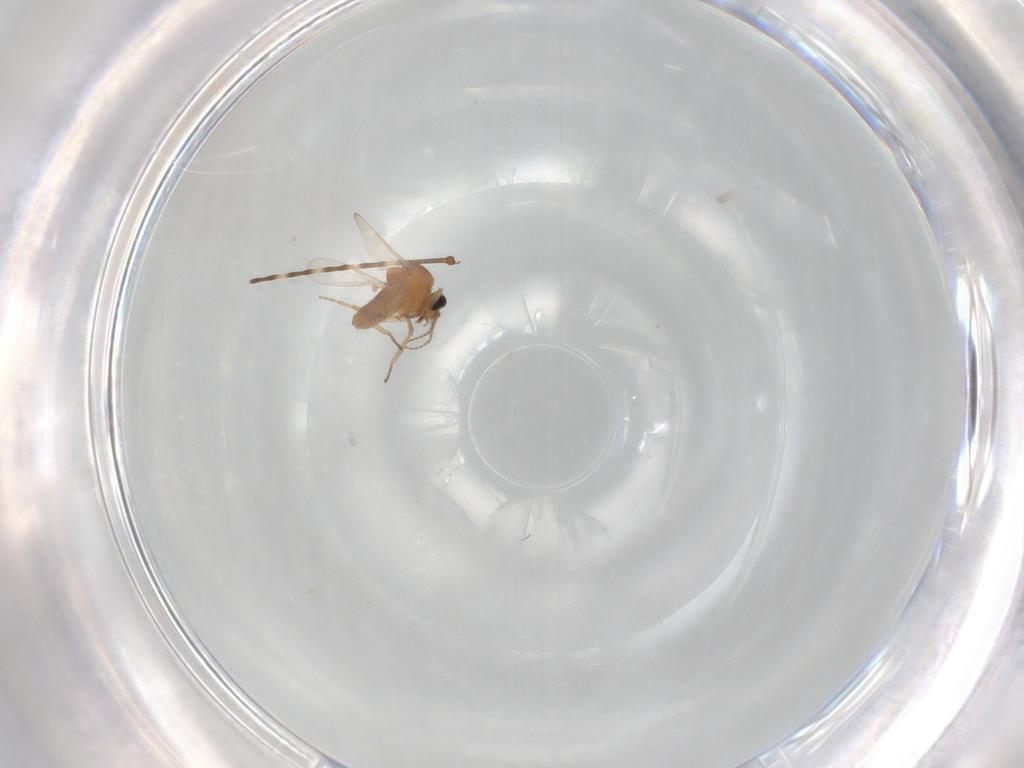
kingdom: Animalia
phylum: Arthropoda
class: Insecta
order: Diptera
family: Ceratopogonidae
